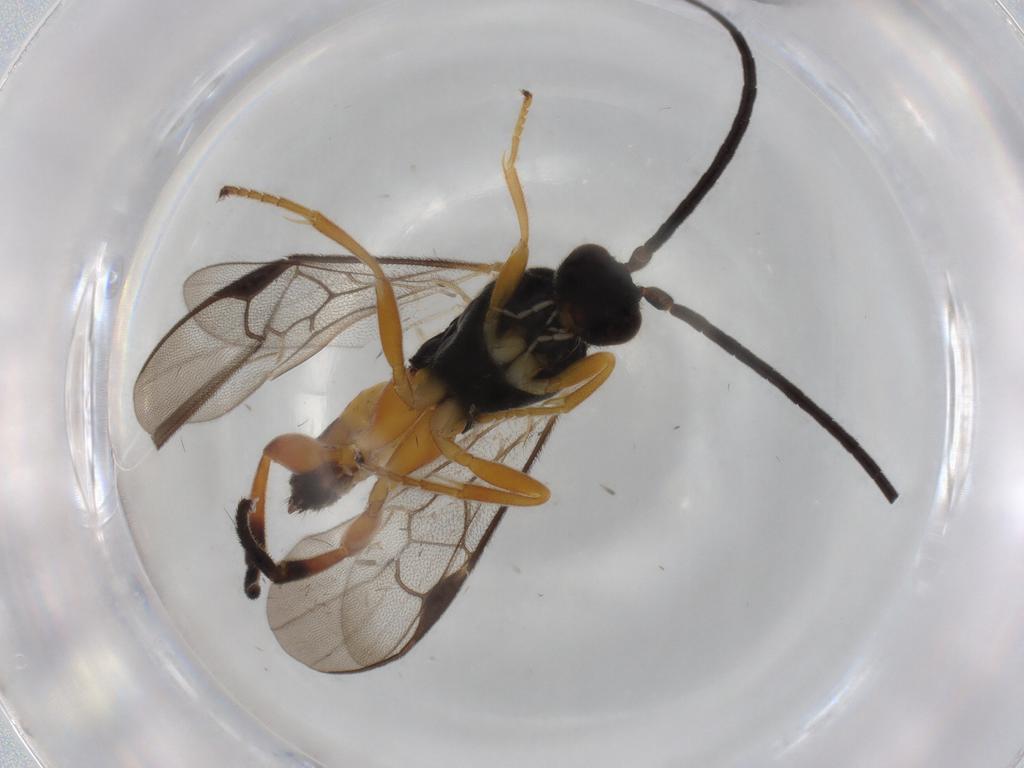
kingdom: Animalia
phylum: Arthropoda
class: Insecta
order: Hymenoptera
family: Braconidae
